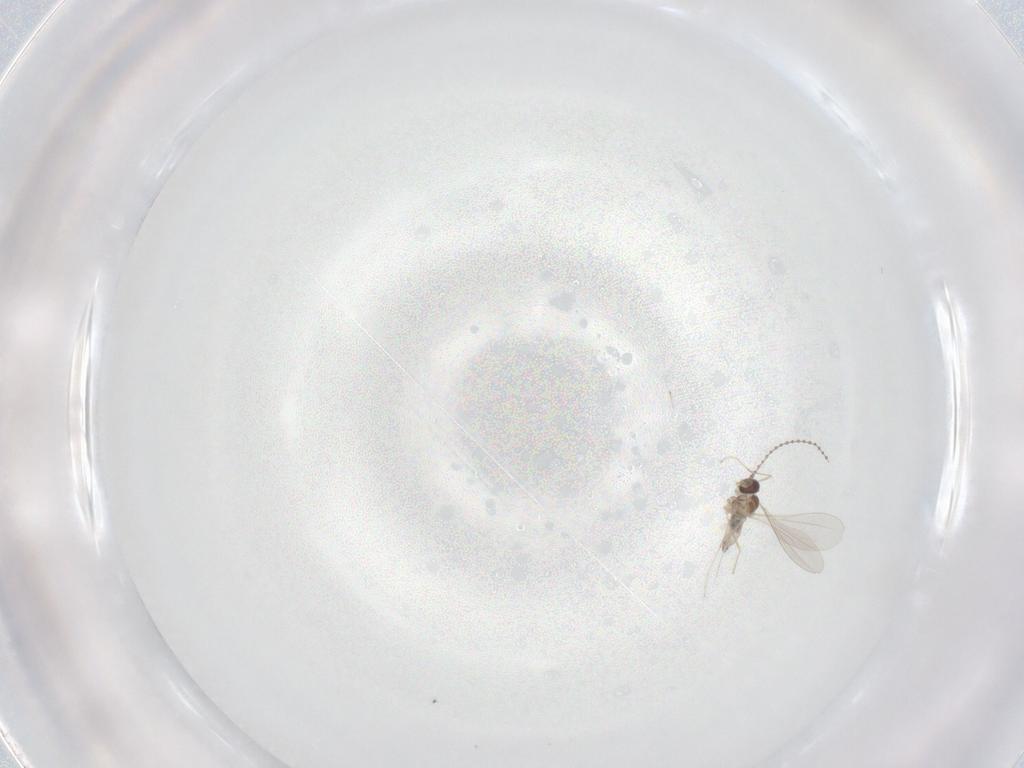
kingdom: Animalia
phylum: Arthropoda
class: Insecta
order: Diptera
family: Cecidomyiidae
